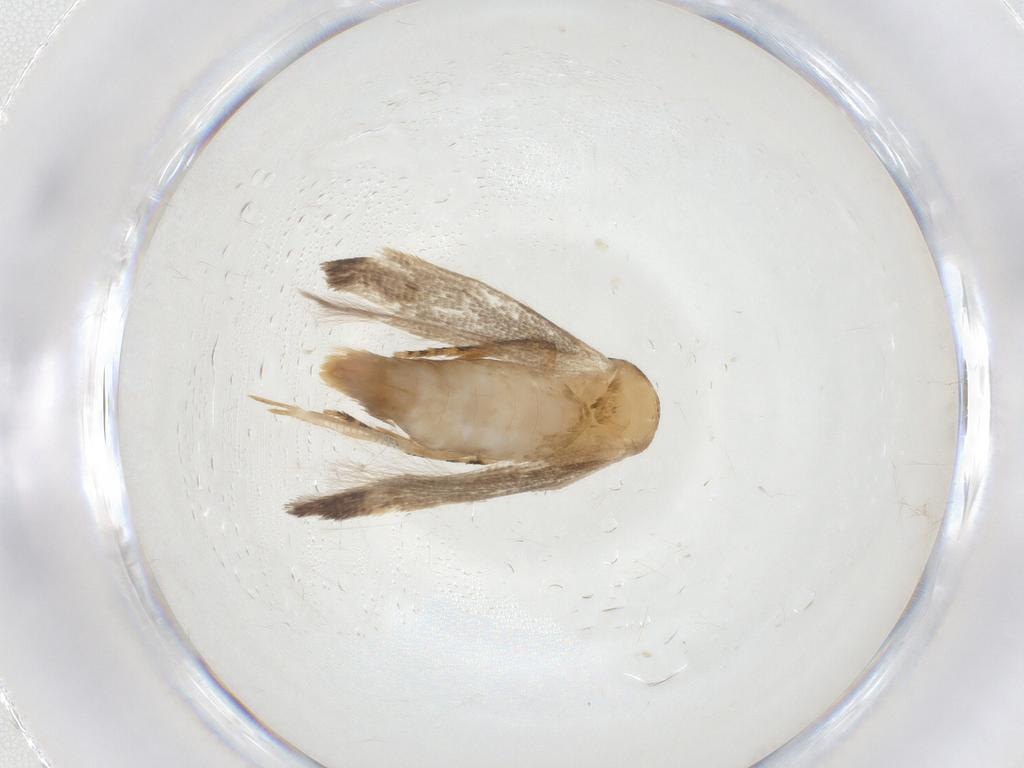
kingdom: Animalia
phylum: Arthropoda
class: Insecta
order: Lepidoptera
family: Cosmopterigidae
